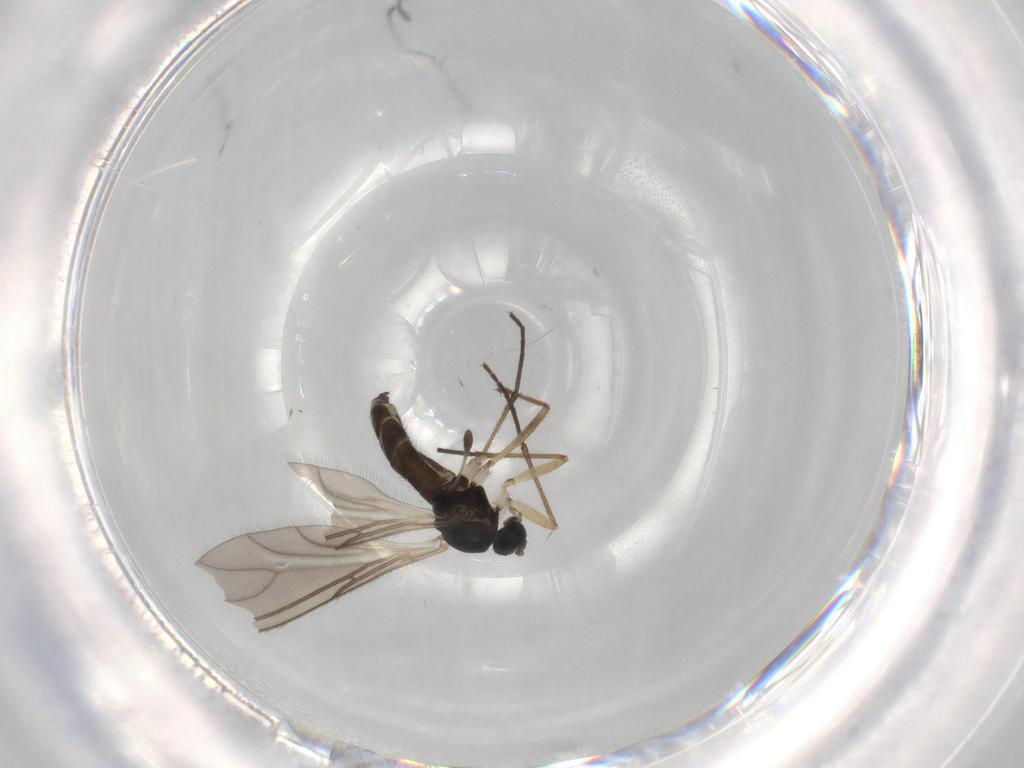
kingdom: Animalia
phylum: Arthropoda
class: Insecta
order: Diptera
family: Sciaridae
